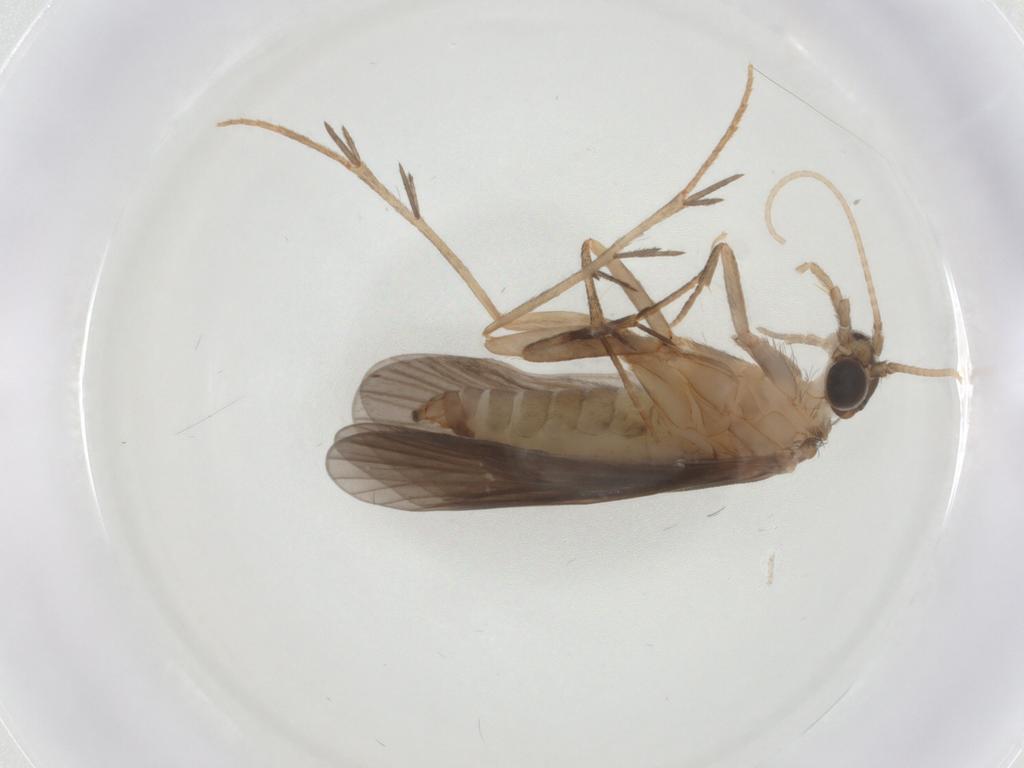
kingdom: Animalia
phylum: Arthropoda
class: Insecta
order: Trichoptera
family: Philopotamidae
